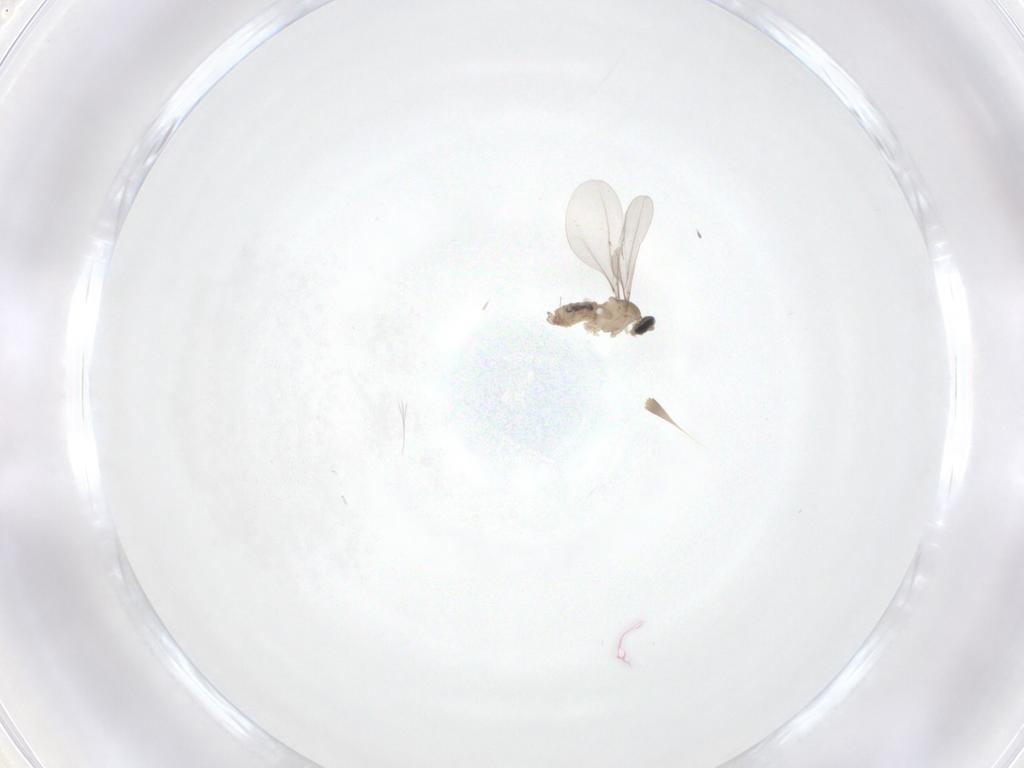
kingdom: Animalia
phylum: Arthropoda
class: Insecta
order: Diptera
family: Cecidomyiidae
